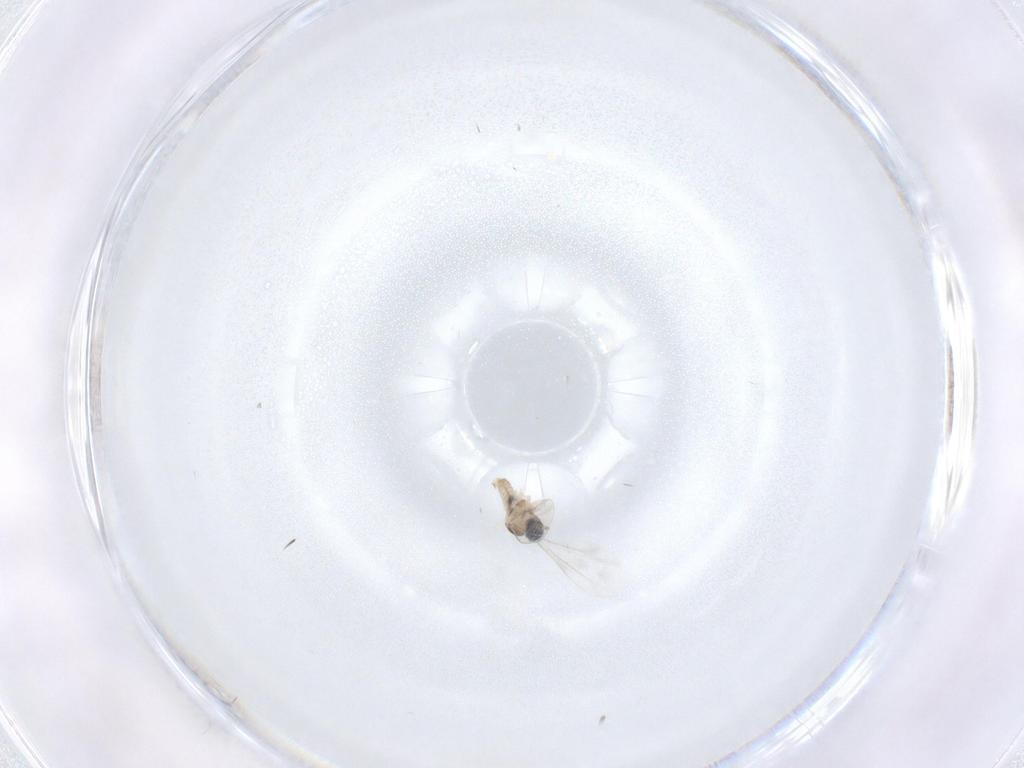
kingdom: Animalia
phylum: Arthropoda
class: Insecta
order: Diptera
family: Cecidomyiidae
